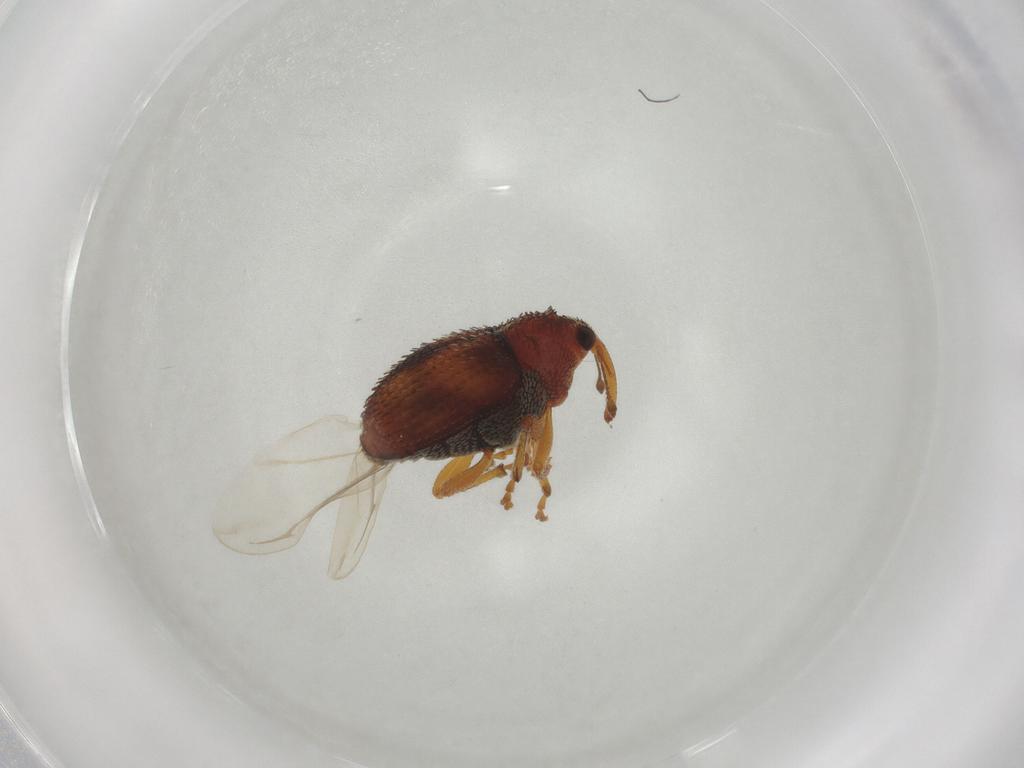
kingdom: Animalia
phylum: Arthropoda
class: Insecta
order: Coleoptera
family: Curculionidae
